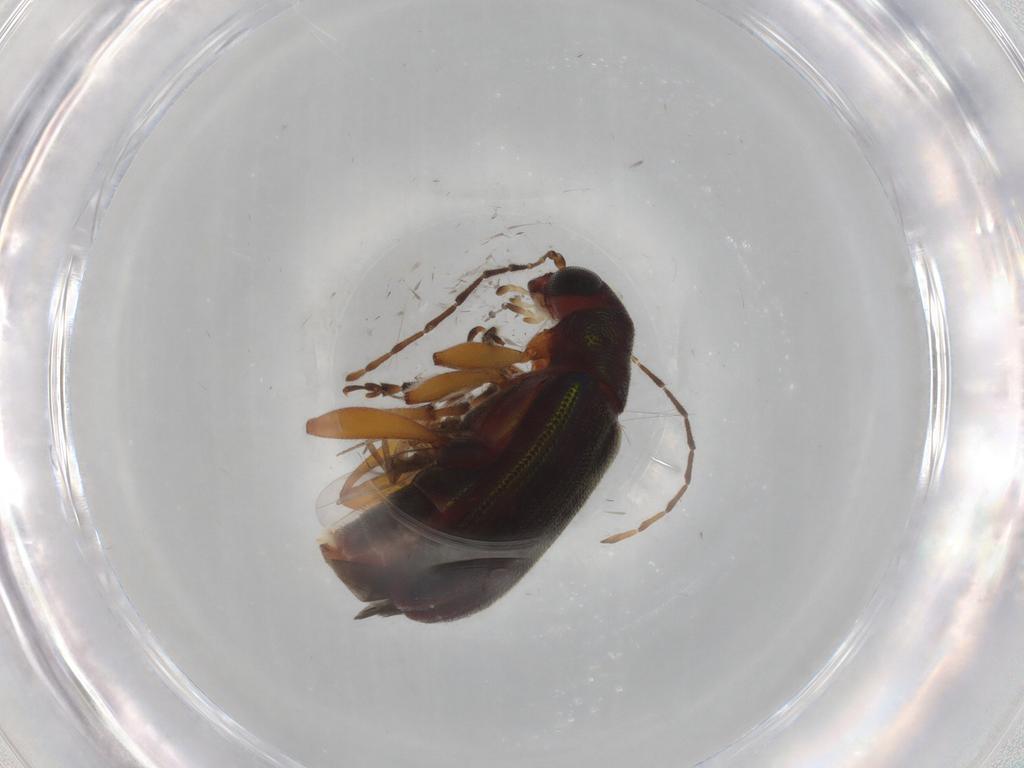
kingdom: Animalia
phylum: Arthropoda
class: Insecta
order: Coleoptera
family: Chrysomelidae
